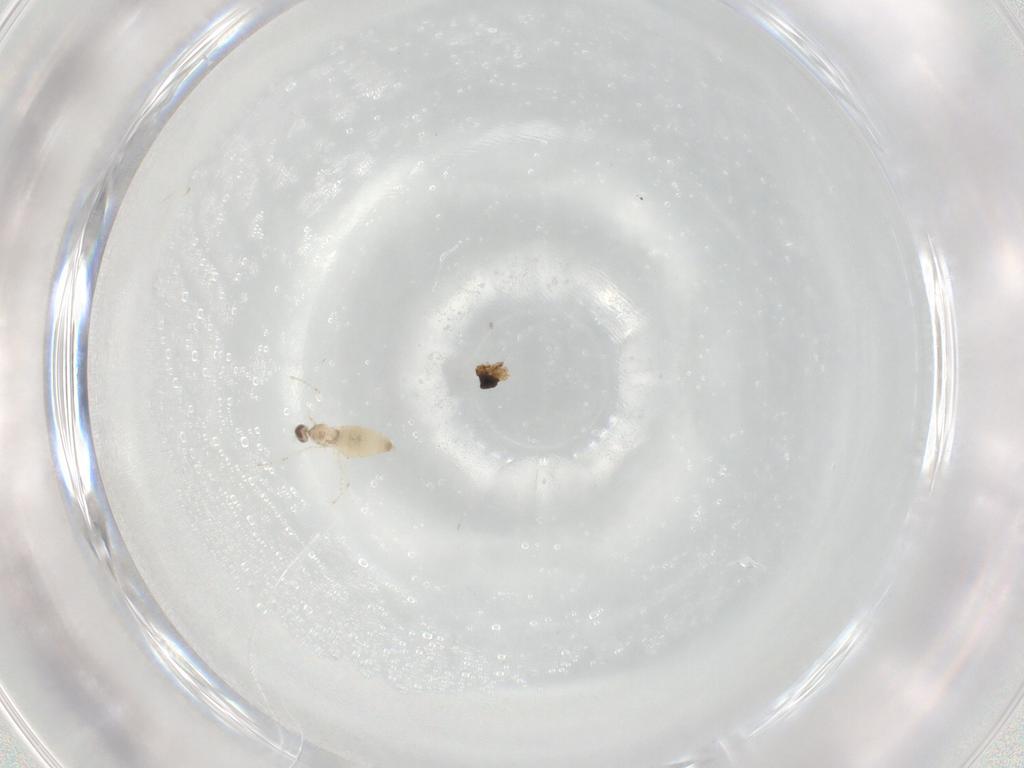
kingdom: Animalia
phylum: Arthropoda
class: Insecta
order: Diptera
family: Cecidomyiidae
